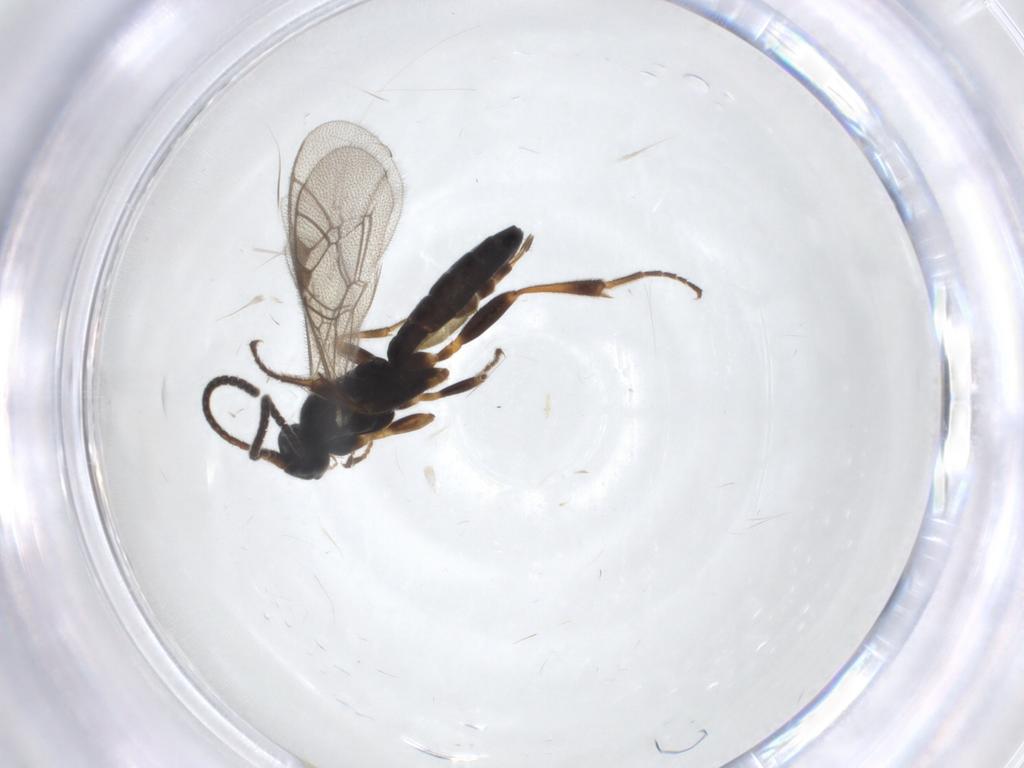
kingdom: Animalia
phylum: Arthropoda
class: Insecta
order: Hymenoptera
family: Ichneumonidae
